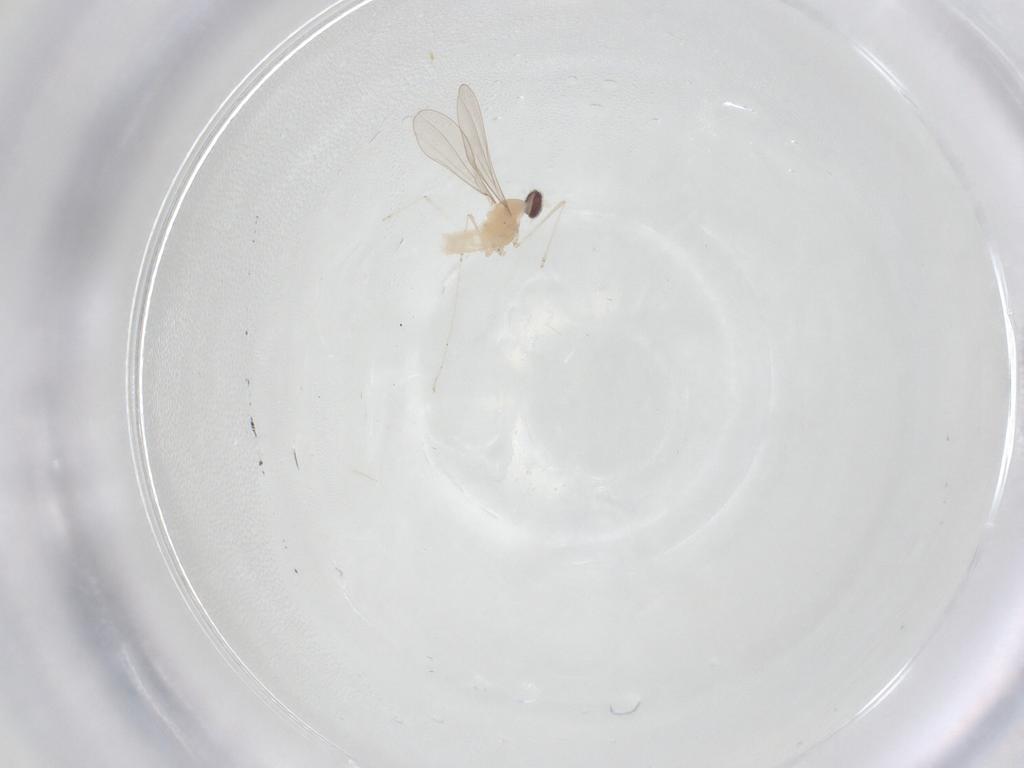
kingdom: Animalia
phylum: Arthropoda
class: Insecta
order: Diptera
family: Cecidomyiidae
